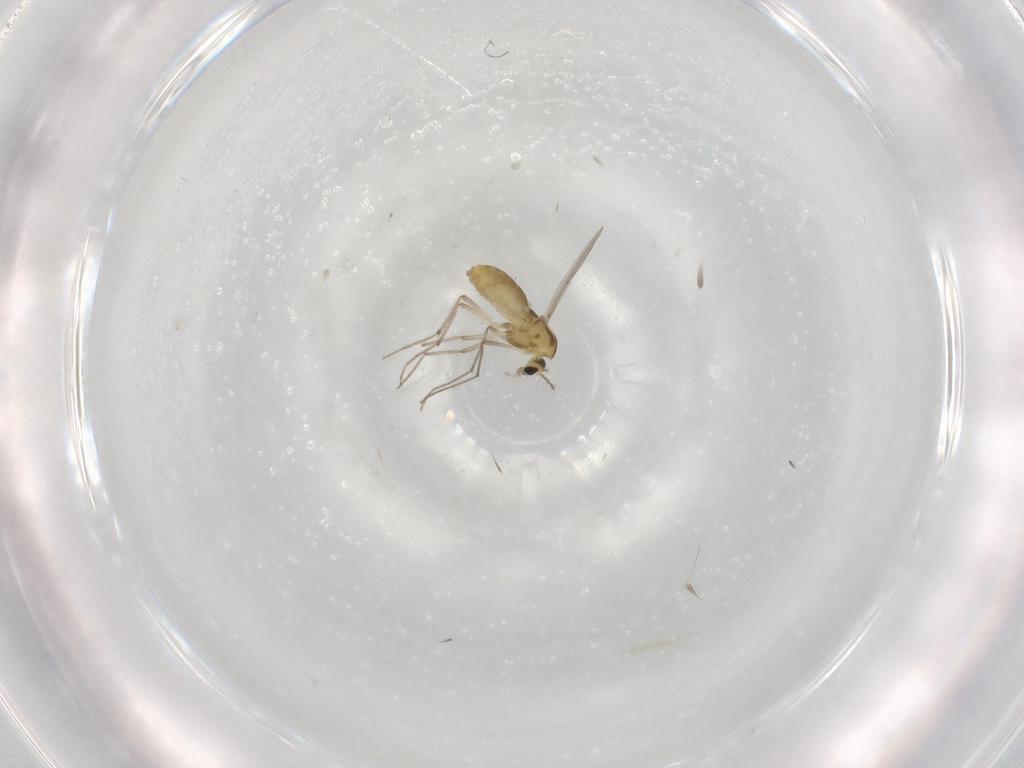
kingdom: Animalia
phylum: Arthropoda
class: Insecta
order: Diptera
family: Chironomidae
